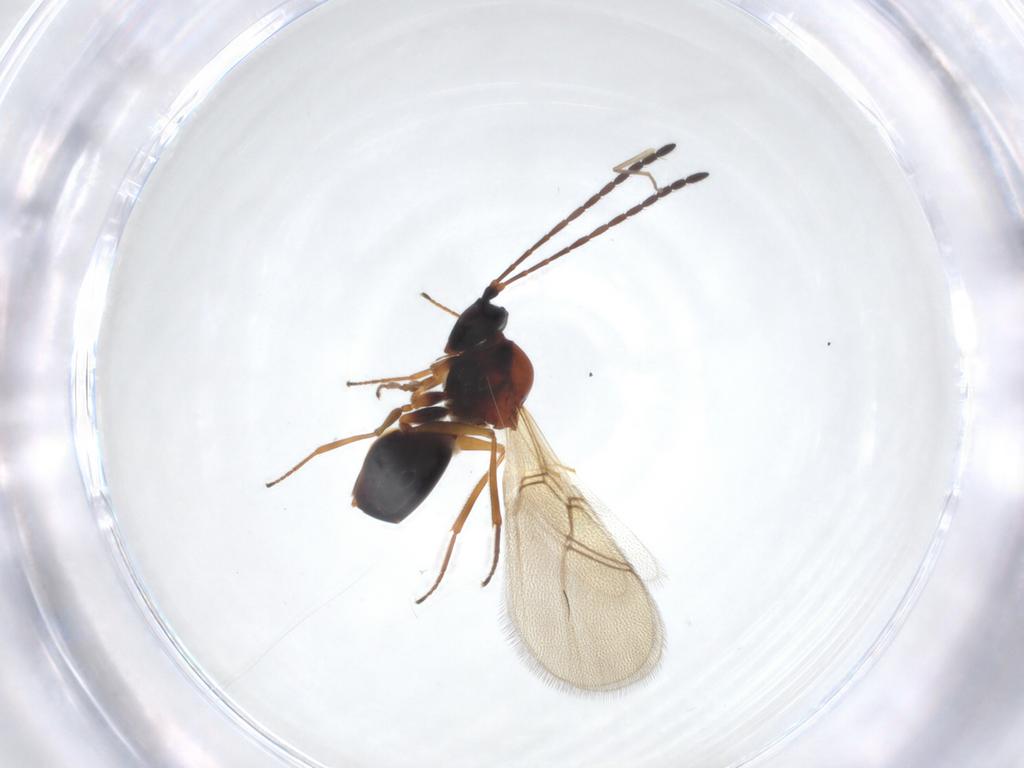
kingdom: Animalia
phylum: Arthropoda
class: Insecta
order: Hymenoptera
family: Figitidae
